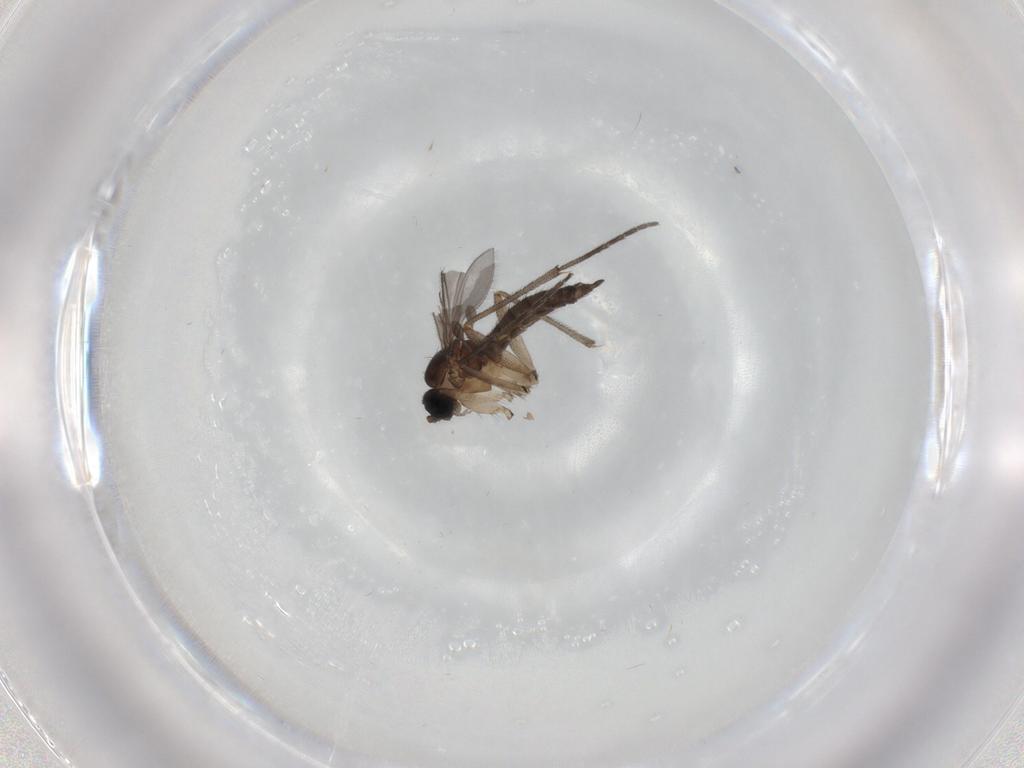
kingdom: Animalia
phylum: Arthropoda
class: Insecta
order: Diptera
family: Sciaridae
